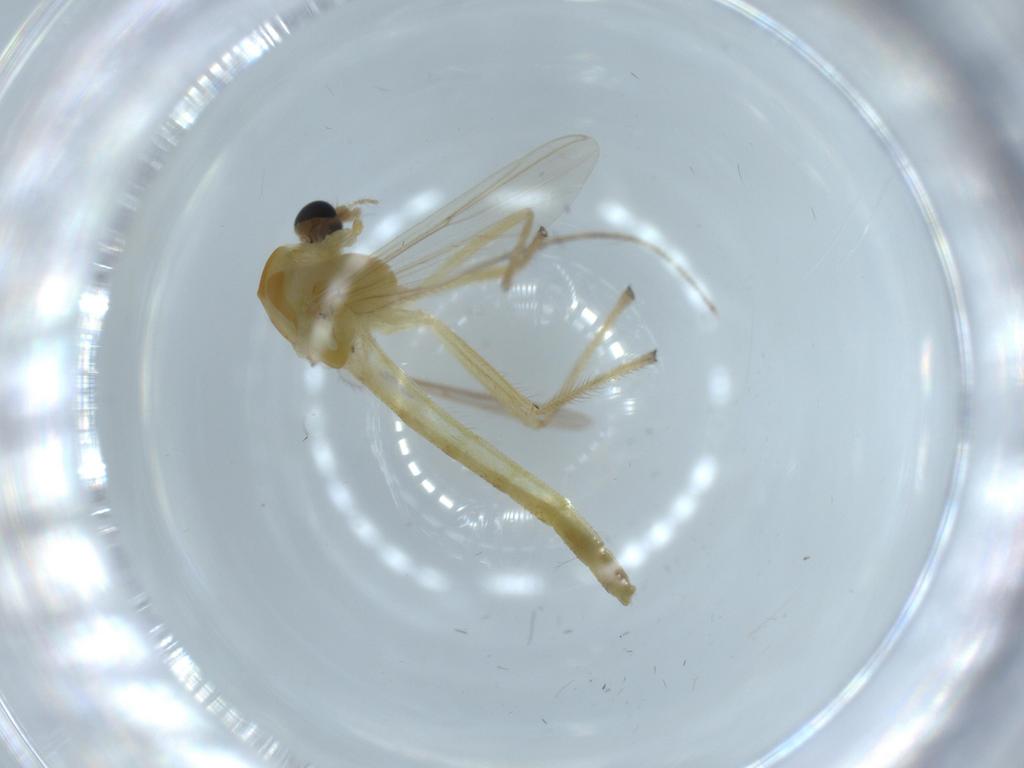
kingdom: Animalia
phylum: Arthropoda
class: Insecta
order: Diptera
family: Chironomidae
